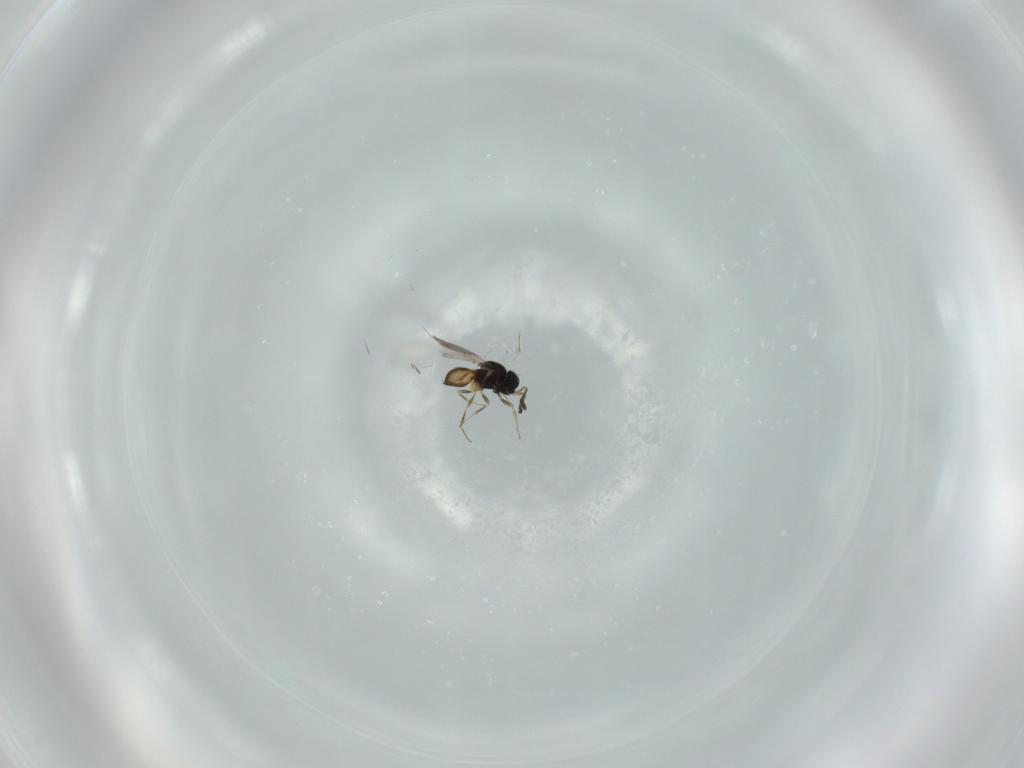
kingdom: Animalia
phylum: Arthropoda
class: Insecta
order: Hymenoptera
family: Scelionidae
